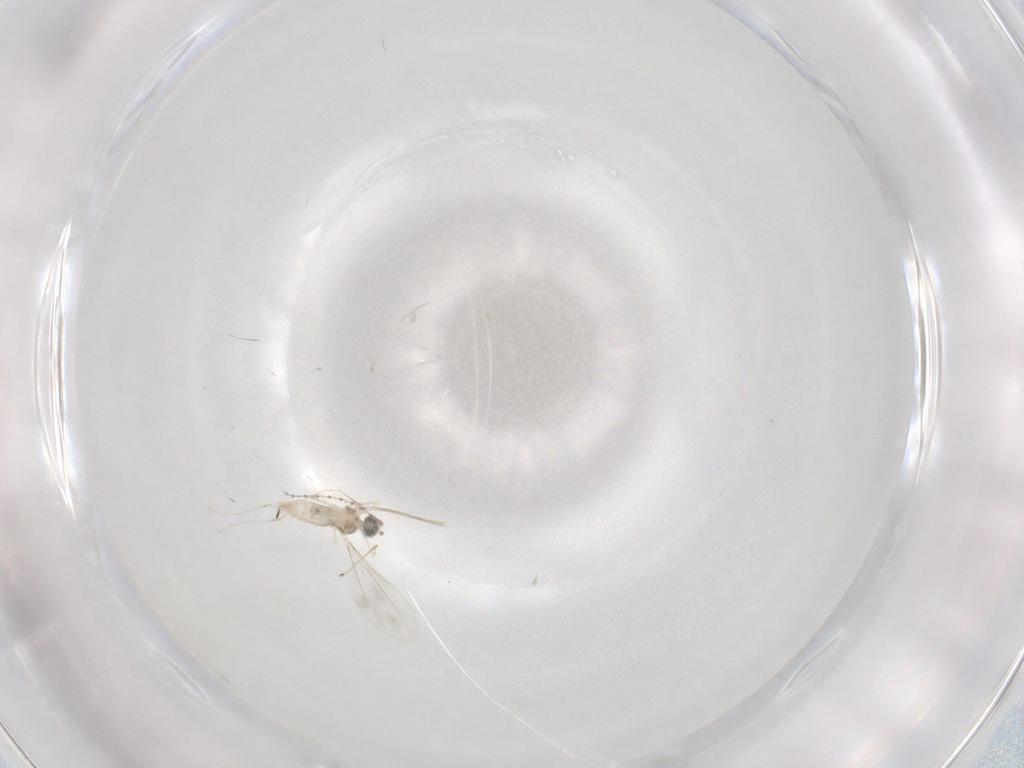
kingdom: Animalia
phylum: Arthropoda
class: Insecta
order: Diptera
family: Cecidomyiidae
